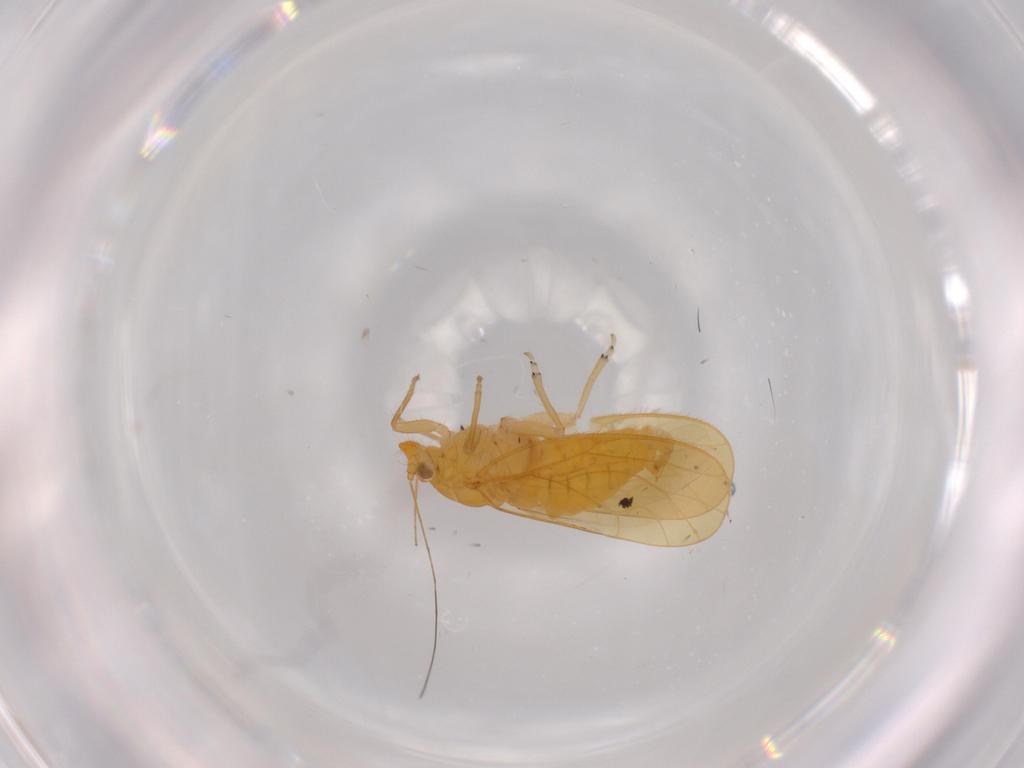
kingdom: Animalia
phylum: Arthropoda
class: Insecta
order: Hemiptera
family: Psyllidae
